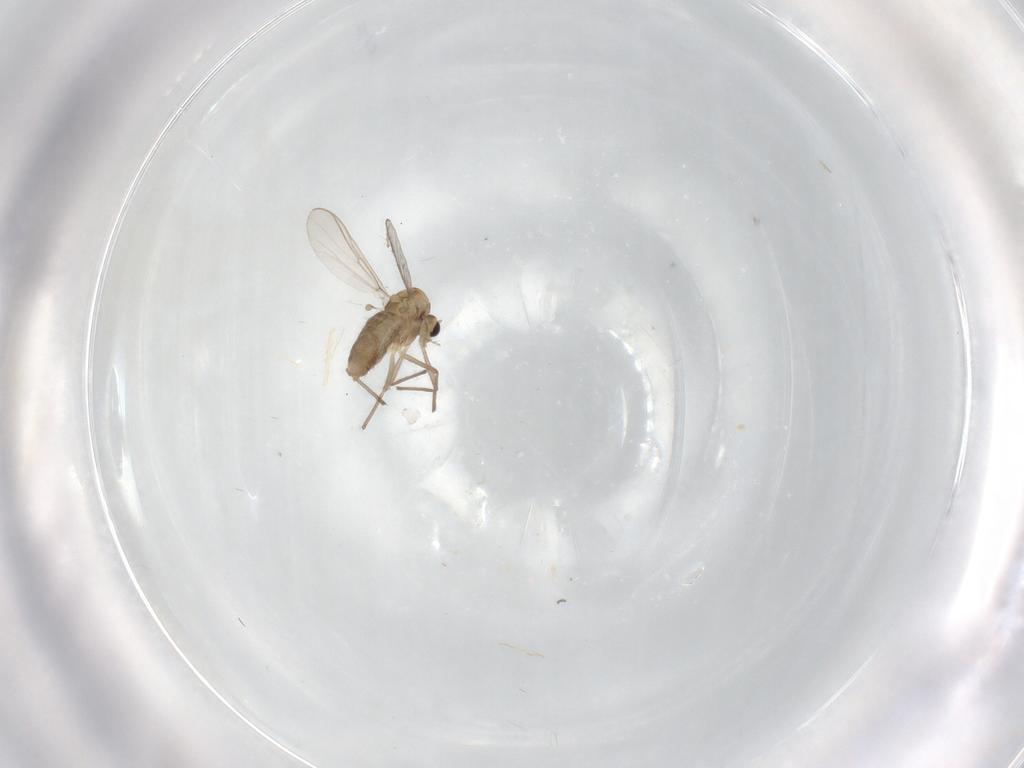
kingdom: Animalia
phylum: Arthropoda
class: Insecta
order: Diptera
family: Chironomidae
